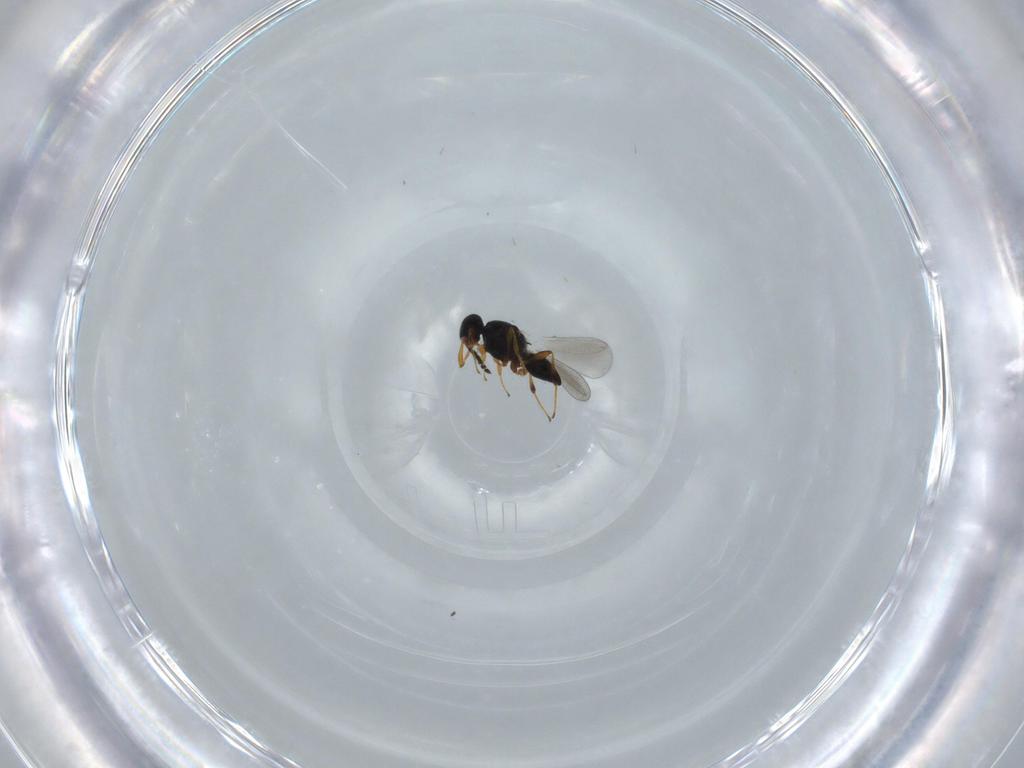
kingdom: Animalia
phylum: Arthropoda
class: Insecta
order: Hymenoptera
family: Platygastridae
